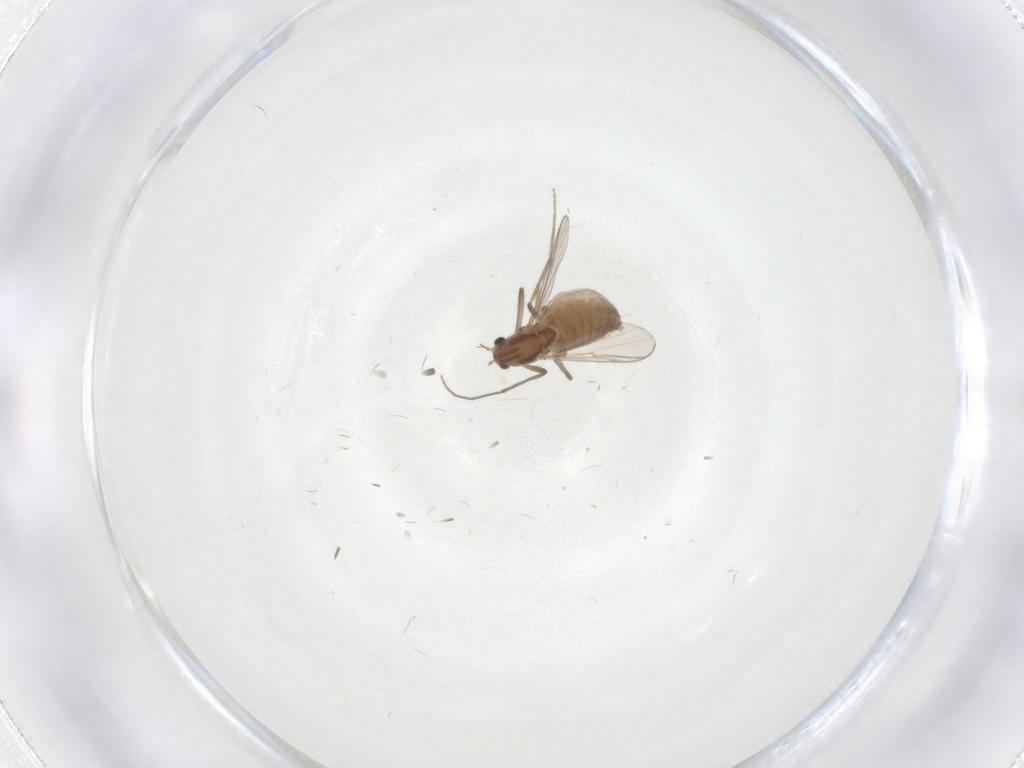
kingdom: Animalia
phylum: Arthropoda
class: Insecta
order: Diptera
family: Chironomidae
